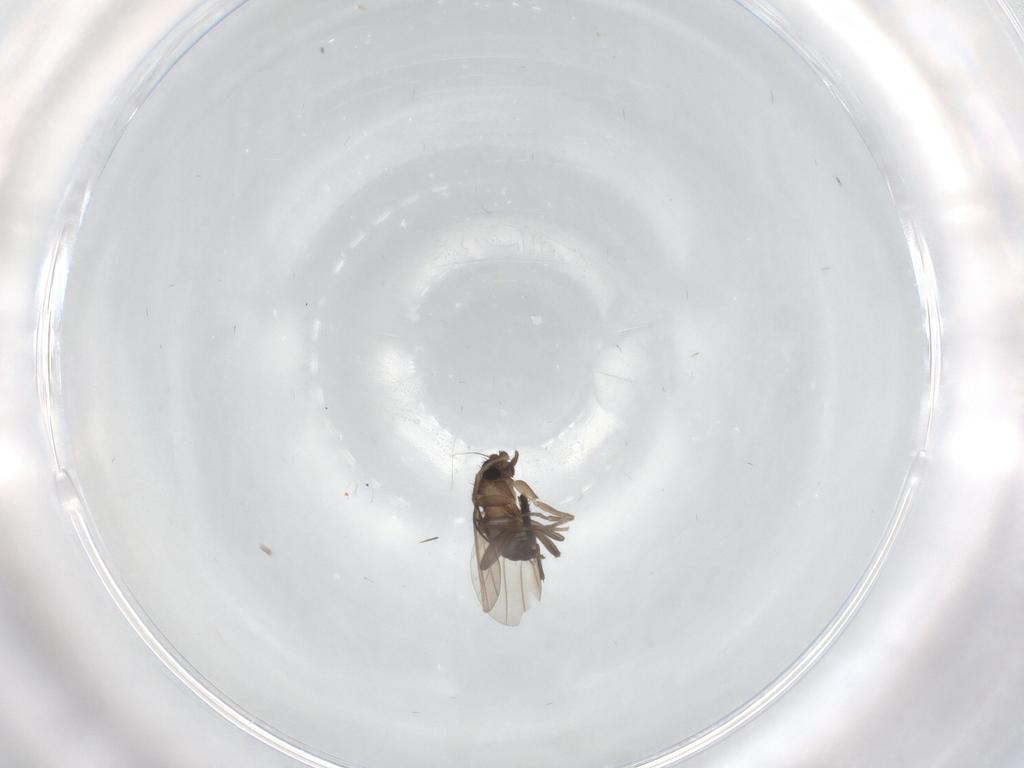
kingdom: Animalia
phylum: Arthropoda
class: Insecta
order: Diptera
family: Chironomidae
